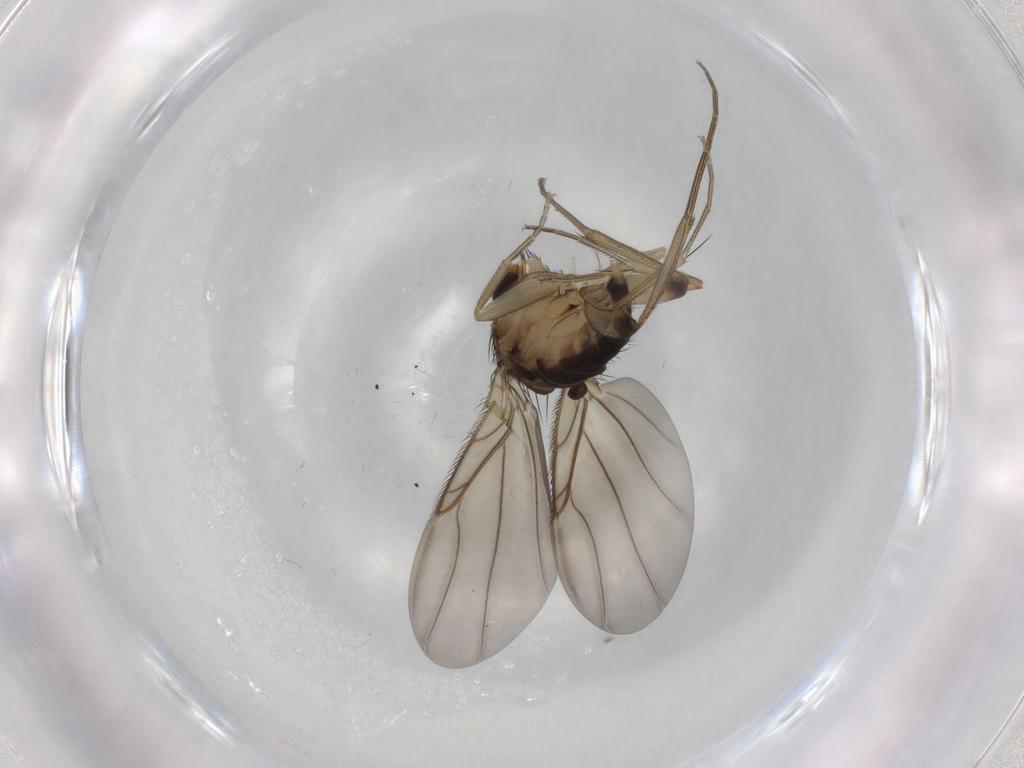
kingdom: Animalia
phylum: Arthropoda
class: Insecta
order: Diptera
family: Phoridae
